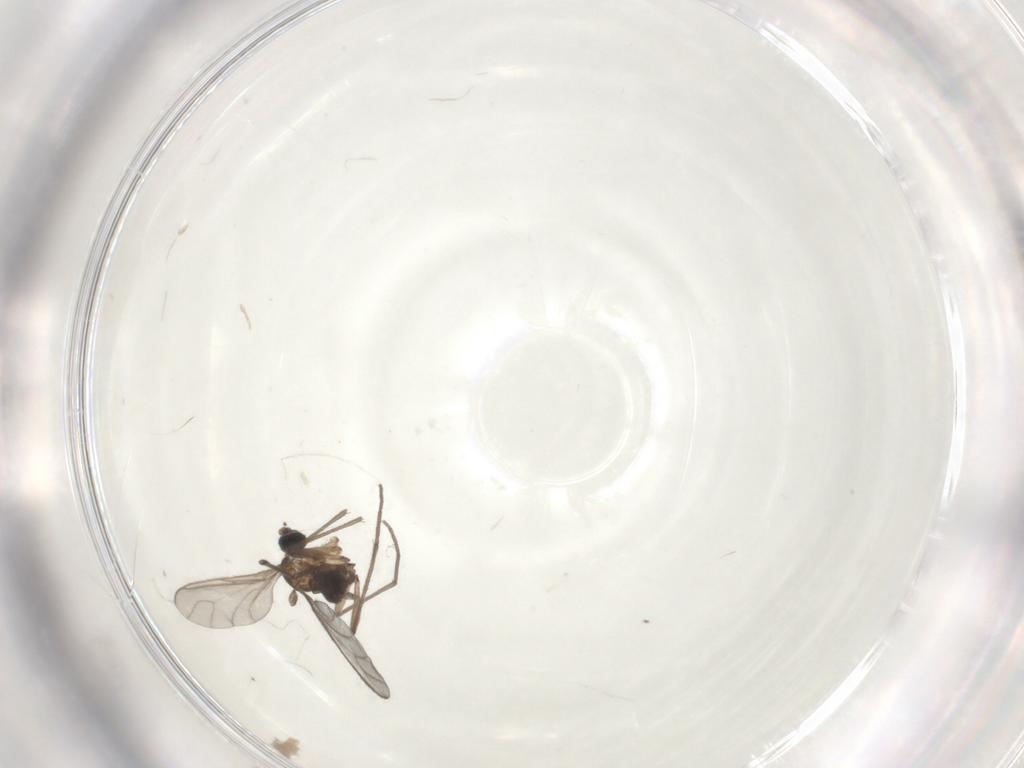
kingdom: Animalia
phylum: Arthropoda
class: Insecta
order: Diptera
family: Sciaridae
